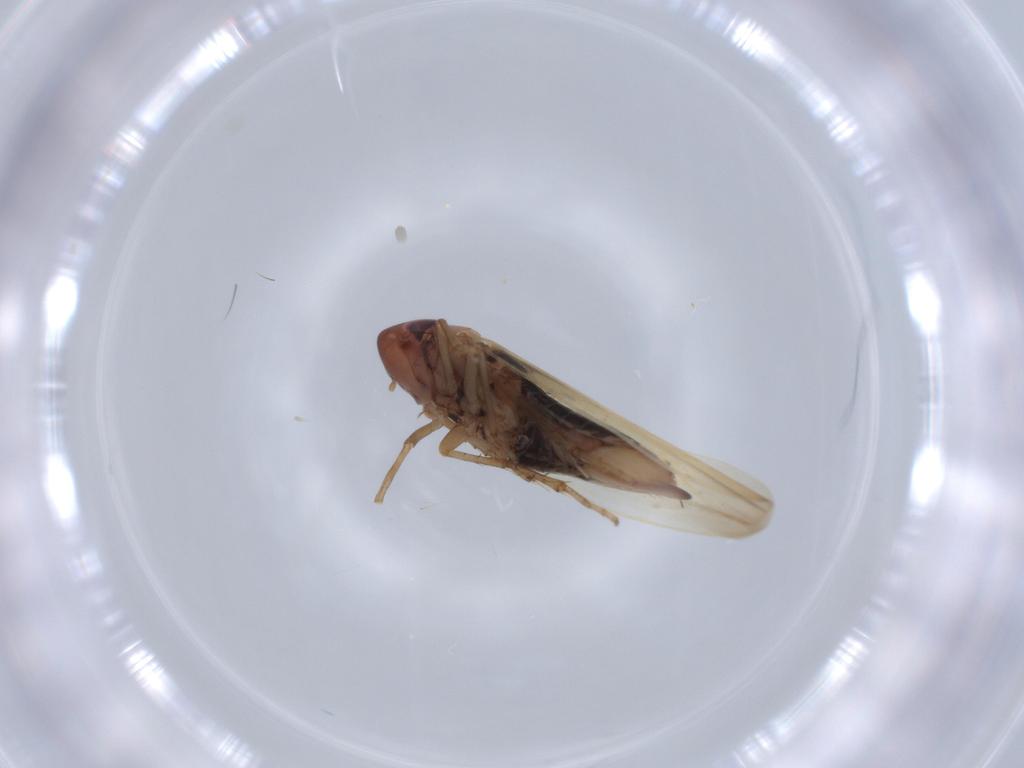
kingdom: Animalia
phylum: Arthropoda
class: Insecta
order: Hemiptera
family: Cicadellidae
